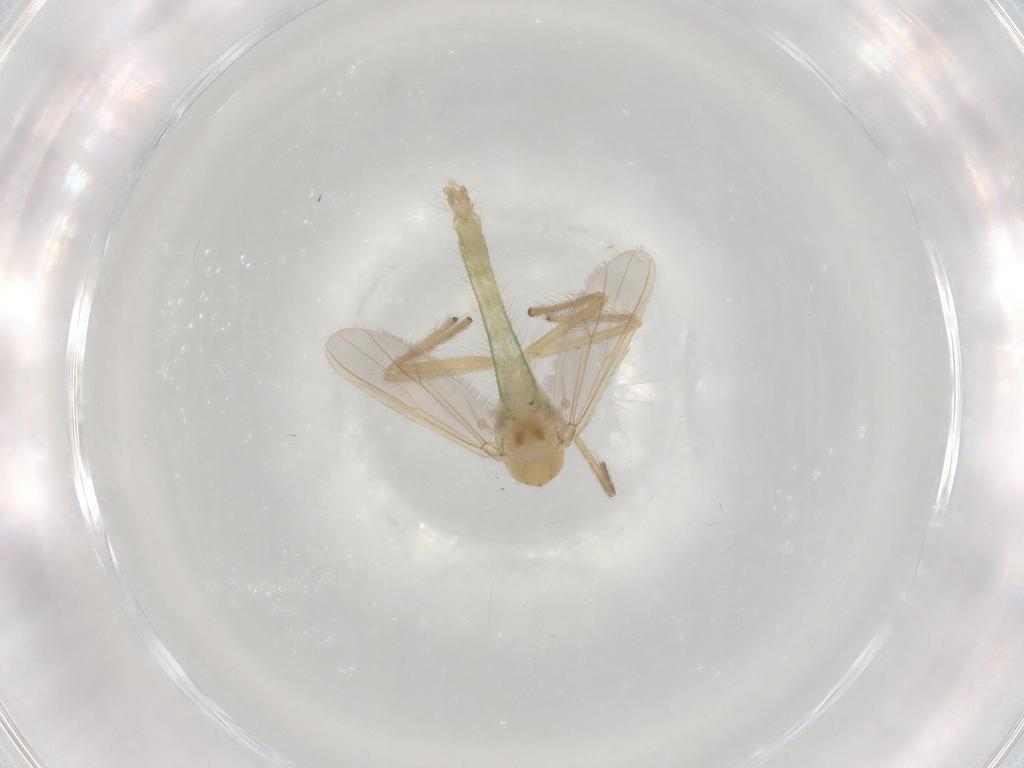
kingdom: Animalia
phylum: Arthropoda
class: Insecta
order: Diptera
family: Chironomidae
